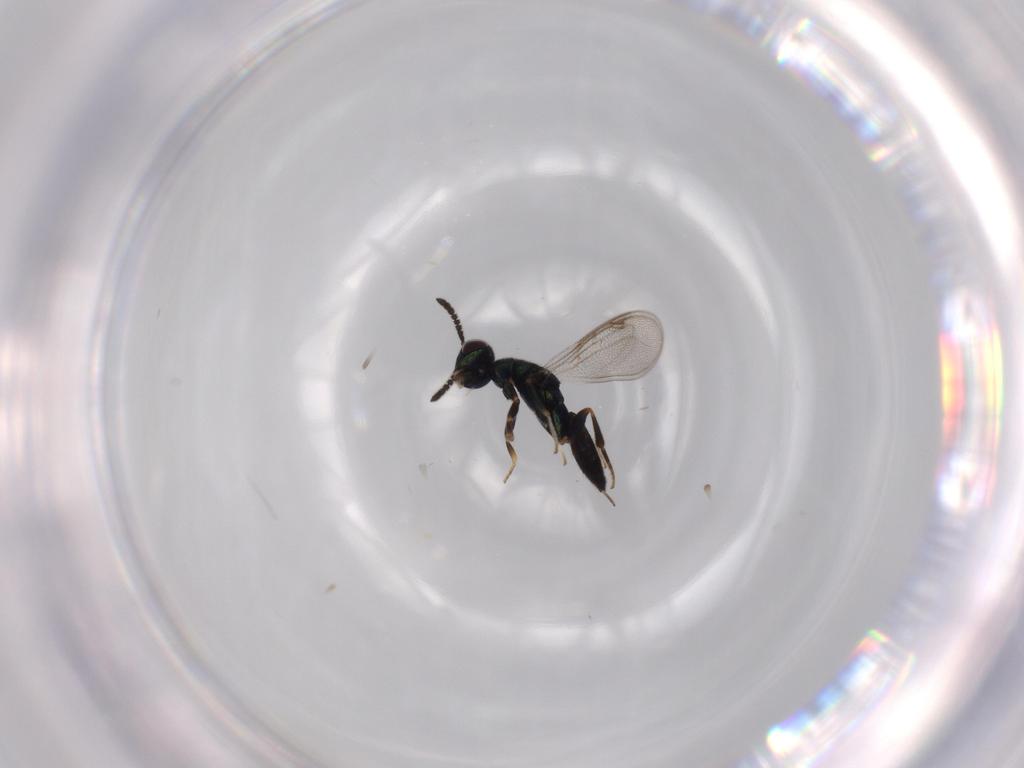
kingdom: Animalia
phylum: Arthropoda
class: Insecta
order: Hymenoptera
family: Cleonyminae
